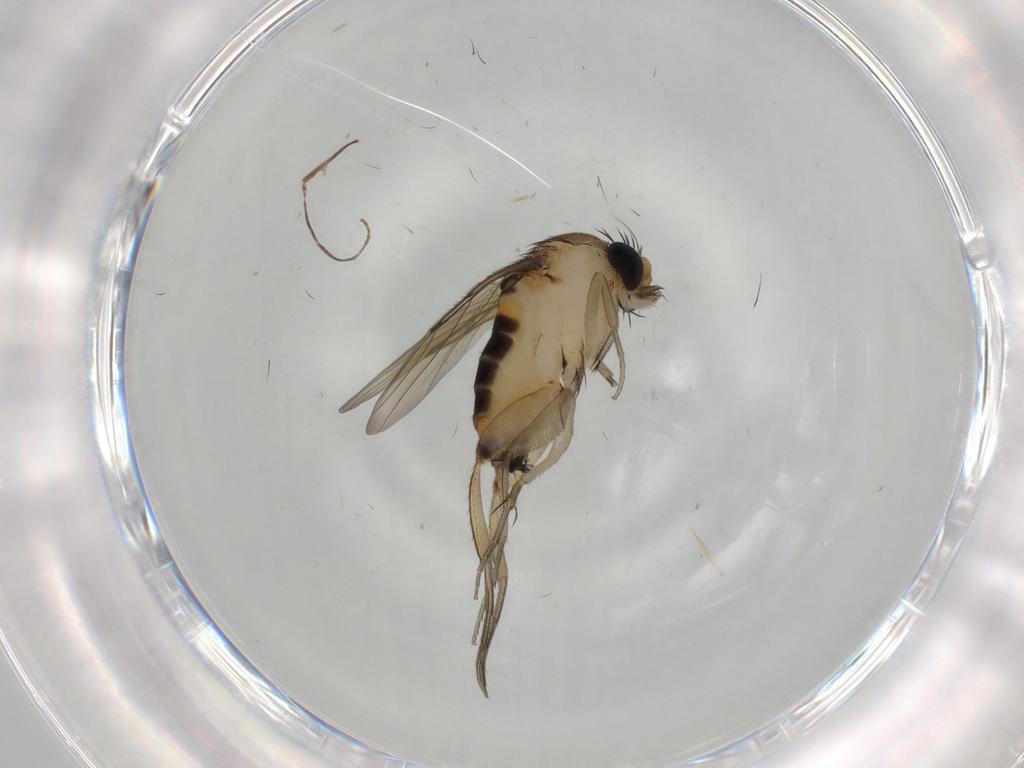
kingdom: Animalia
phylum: Arthropoda
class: Insecta
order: Diptera
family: Phoridae
